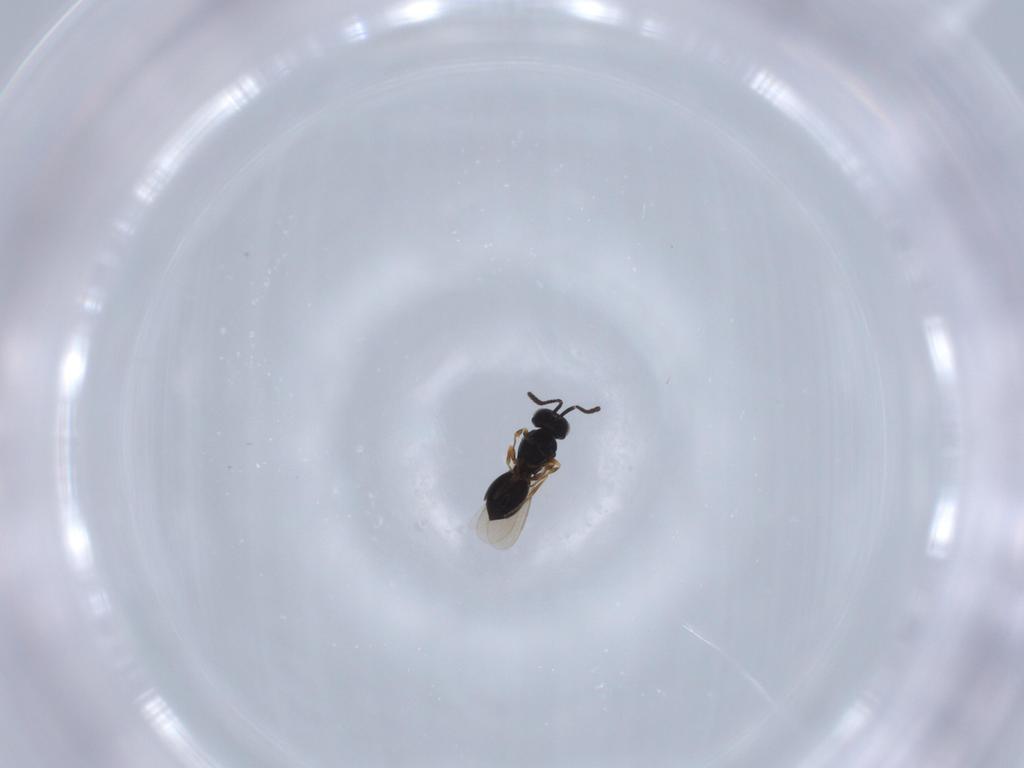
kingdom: Animalia
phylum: Arthropoda
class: Insecta
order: Hymenoptera
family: Scelionidae
